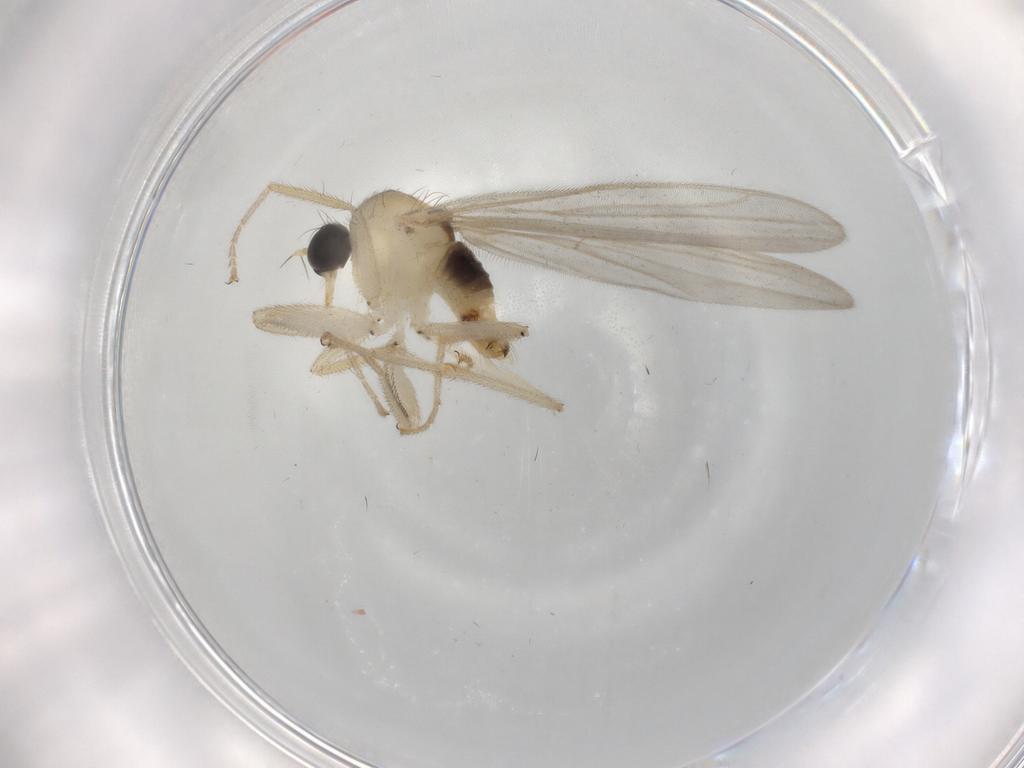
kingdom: Animalia
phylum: Arthropoda
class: Insecta
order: Diptera
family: Hybotidae
